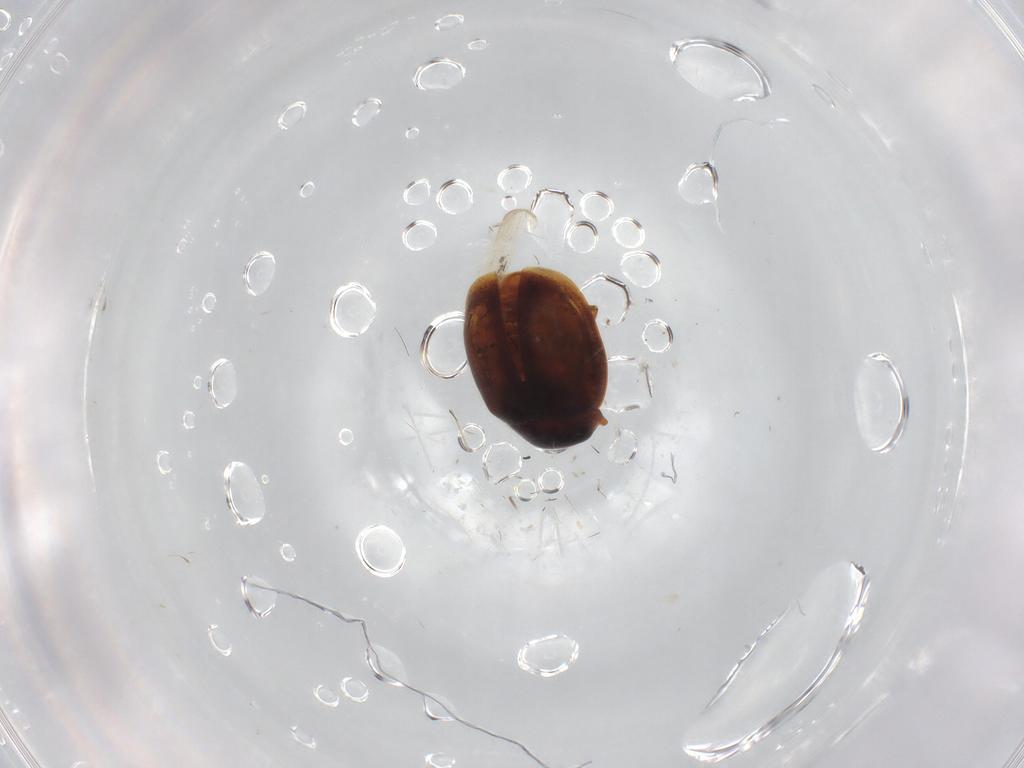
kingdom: Animalia
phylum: Arthropoda
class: Insecta
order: Coleoptera
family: Coccinellidae
